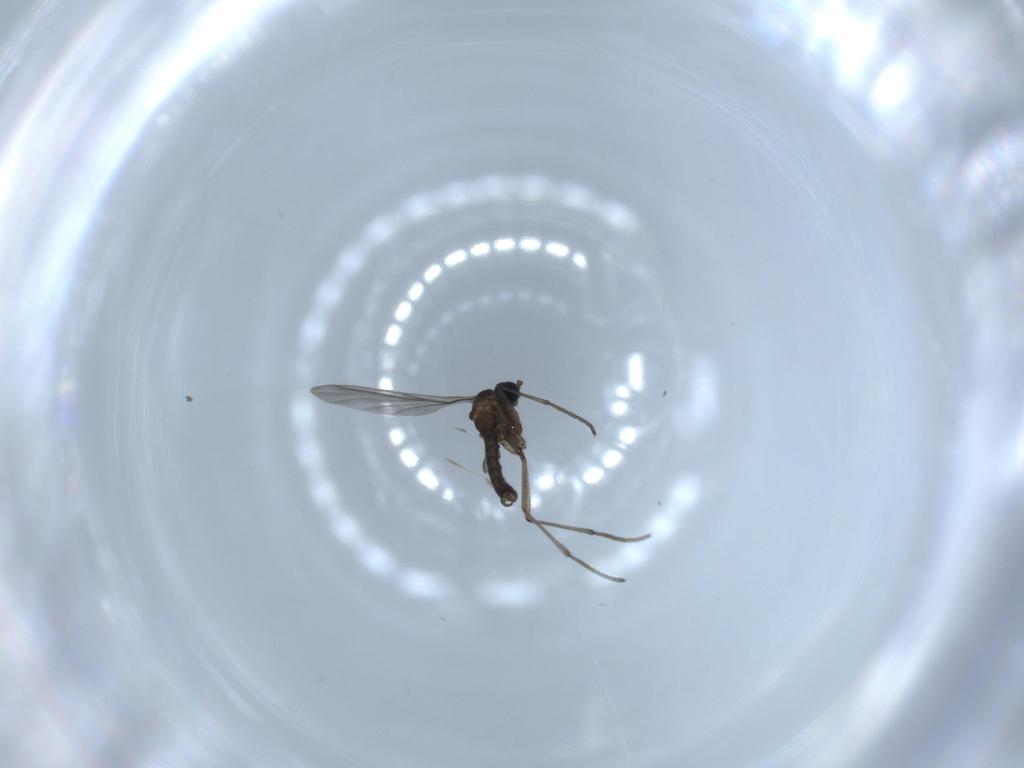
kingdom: Animalia
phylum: Arthropoda
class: Insecta
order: Diptera
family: Sciaridae
